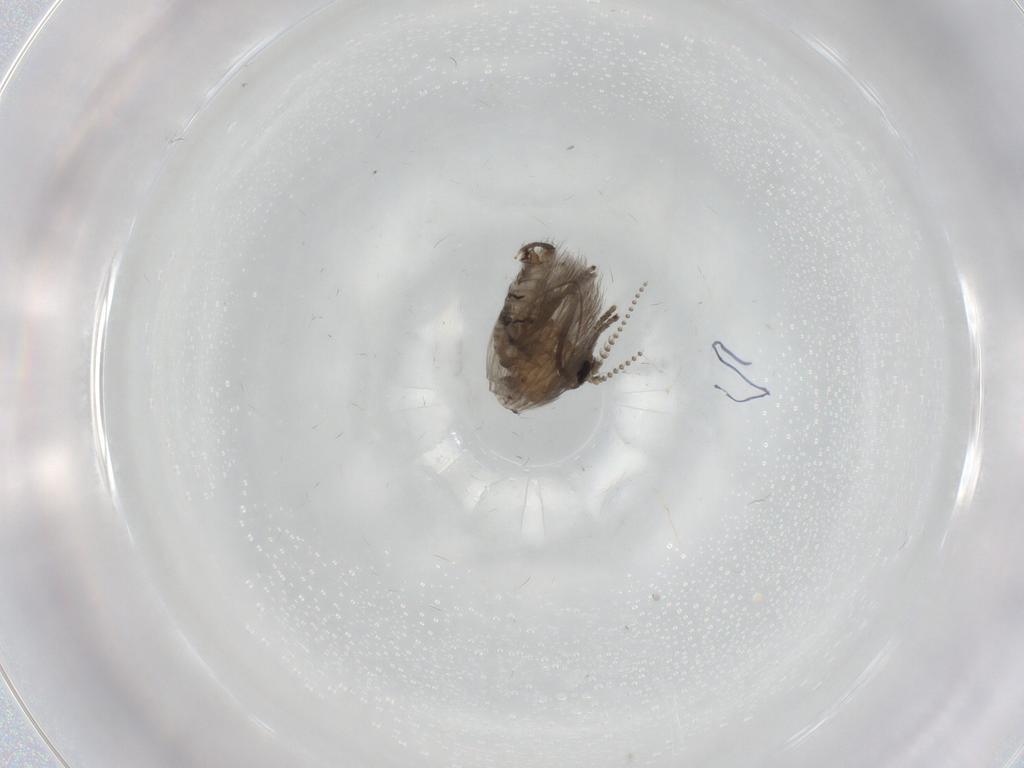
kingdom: Animalia
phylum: Arthropoda
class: Insecta
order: Diptera
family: Psychodidae
